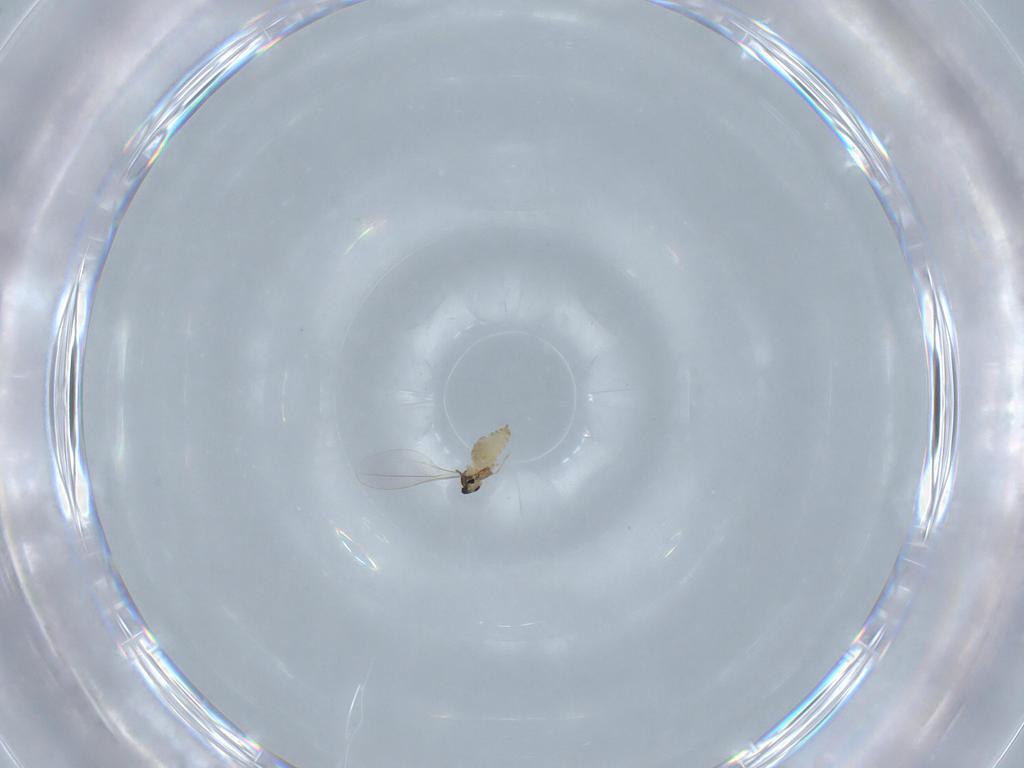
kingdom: Animalia
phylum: Arthropoda
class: Insecta
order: Diptera
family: Cecidomyiidae
